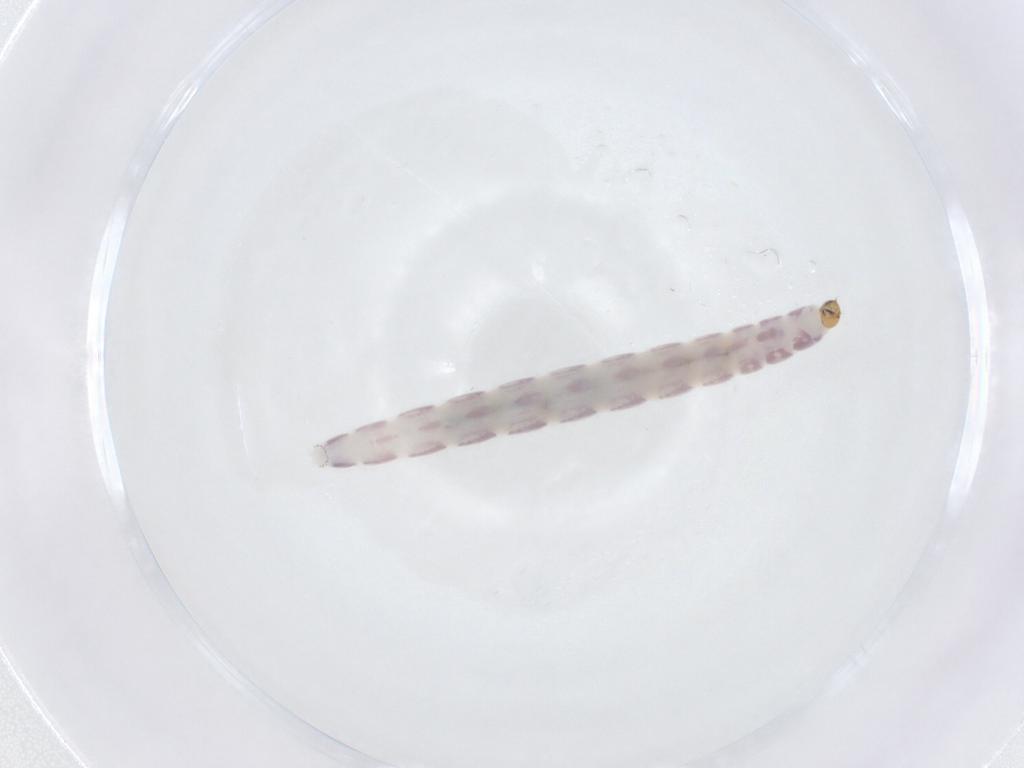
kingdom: Animalia
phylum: Arthropoda
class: Insecta
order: Diptera
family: Chironomidae
